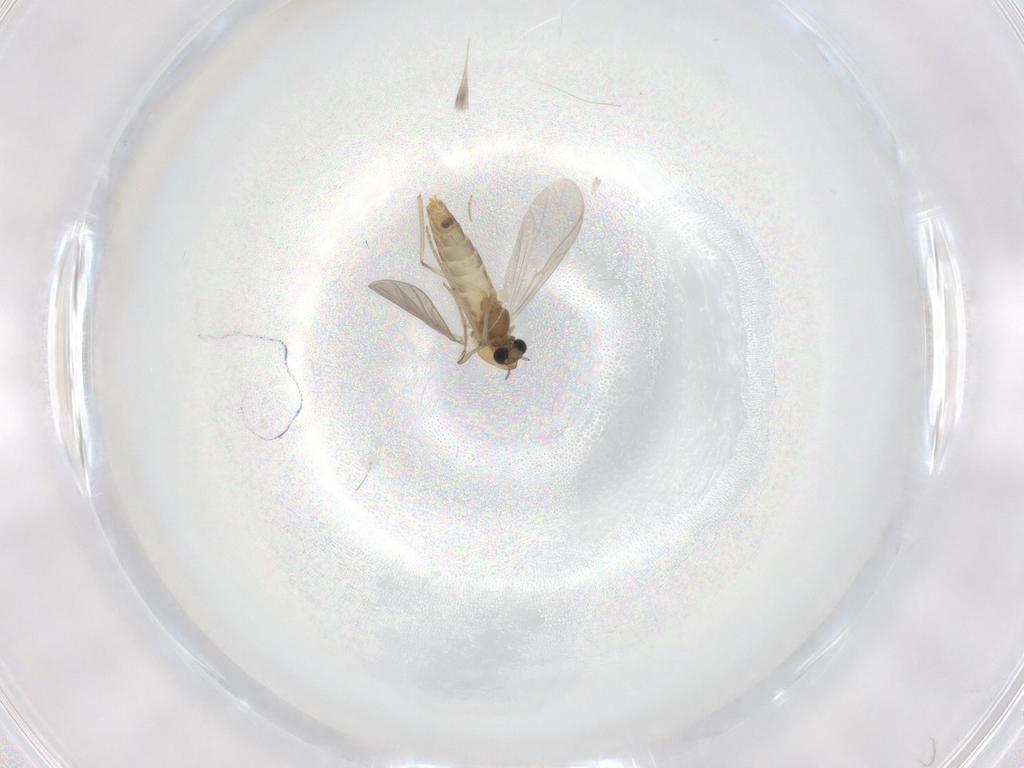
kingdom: Animalia
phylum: Arthropoda
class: Insecta
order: Diptera
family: Chironomidae
